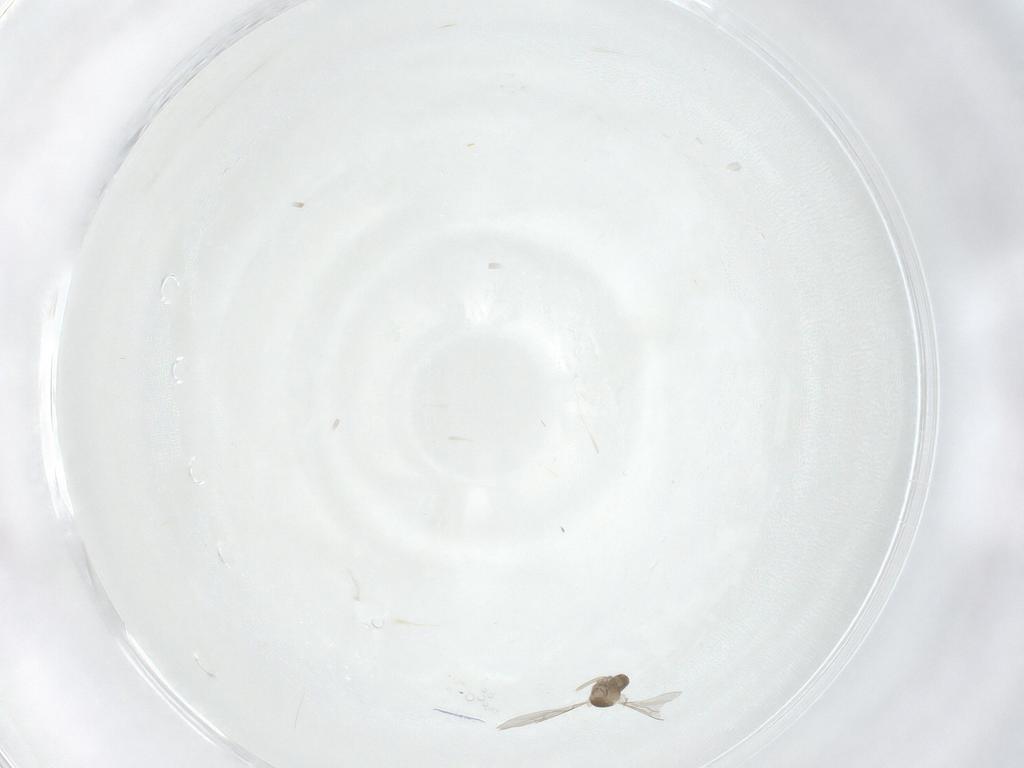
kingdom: Animalia
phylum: Arthropoda
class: Insecta
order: Diptera
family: Cecidomyiidae
